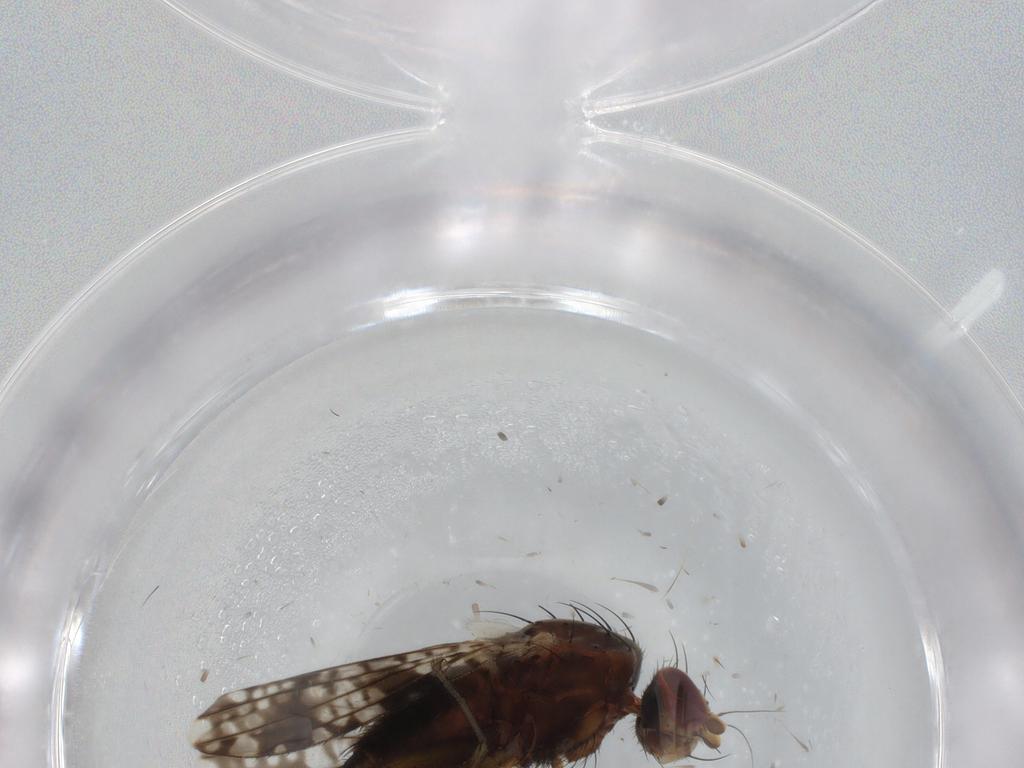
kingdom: Animalia
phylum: Arthropoda
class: Insecta
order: Diptera
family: Tephritidae
